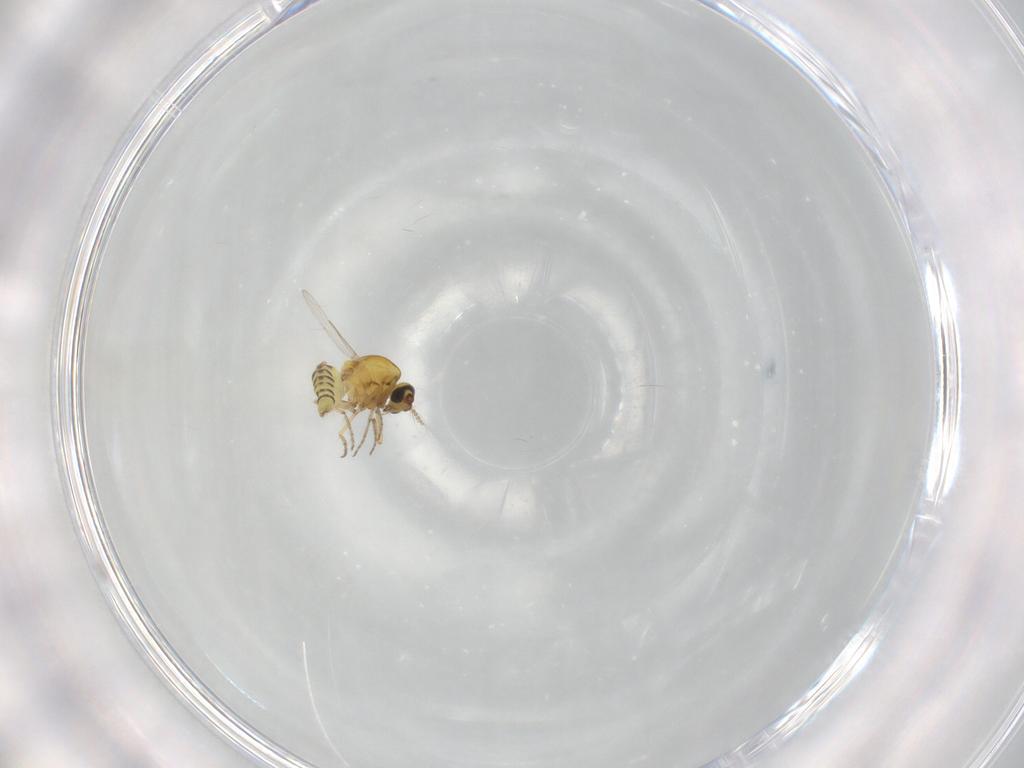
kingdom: Animalia
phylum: Arthropoda
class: Insecta
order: Diptera
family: Ceratopogonidae
